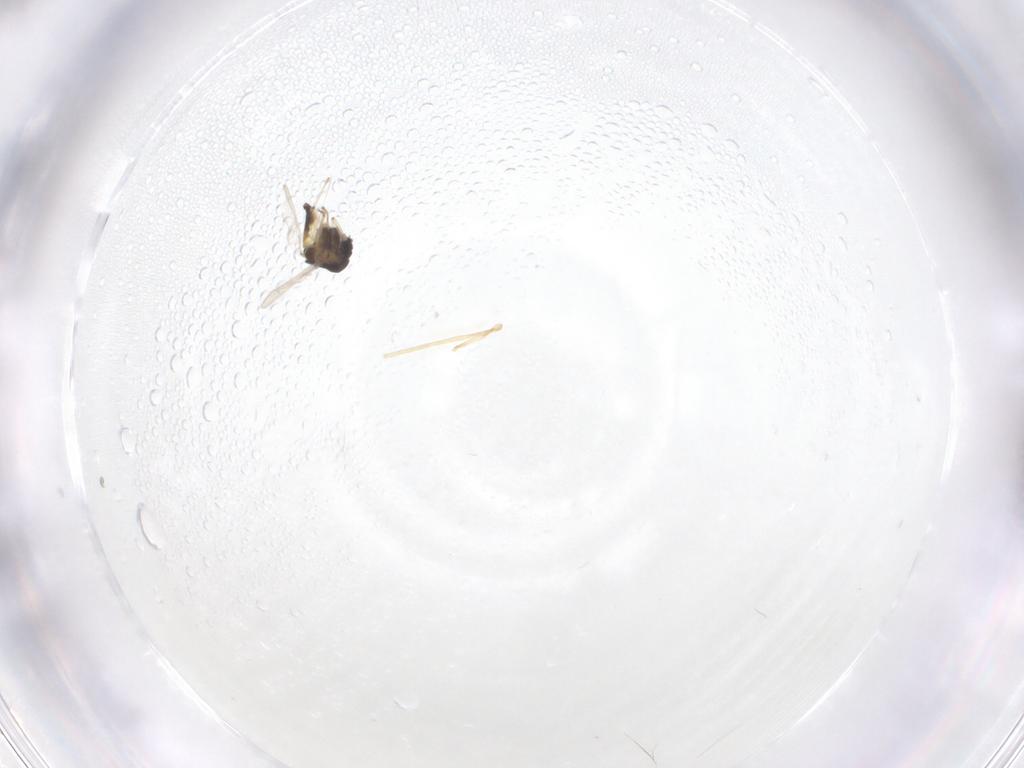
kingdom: Animalia
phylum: Arthropoda
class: Insecta
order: Diptera
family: Chironomidae
